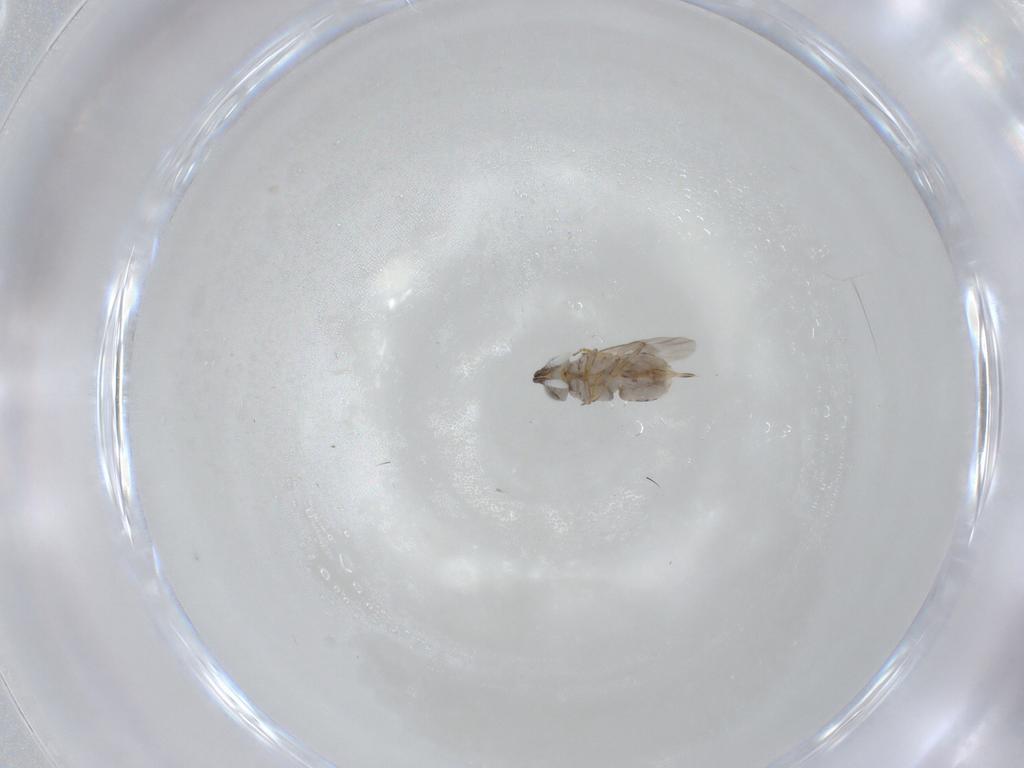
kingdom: Animalia
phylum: Arthropoda
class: Insecta
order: Hymenoptera
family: Encyrtidae
